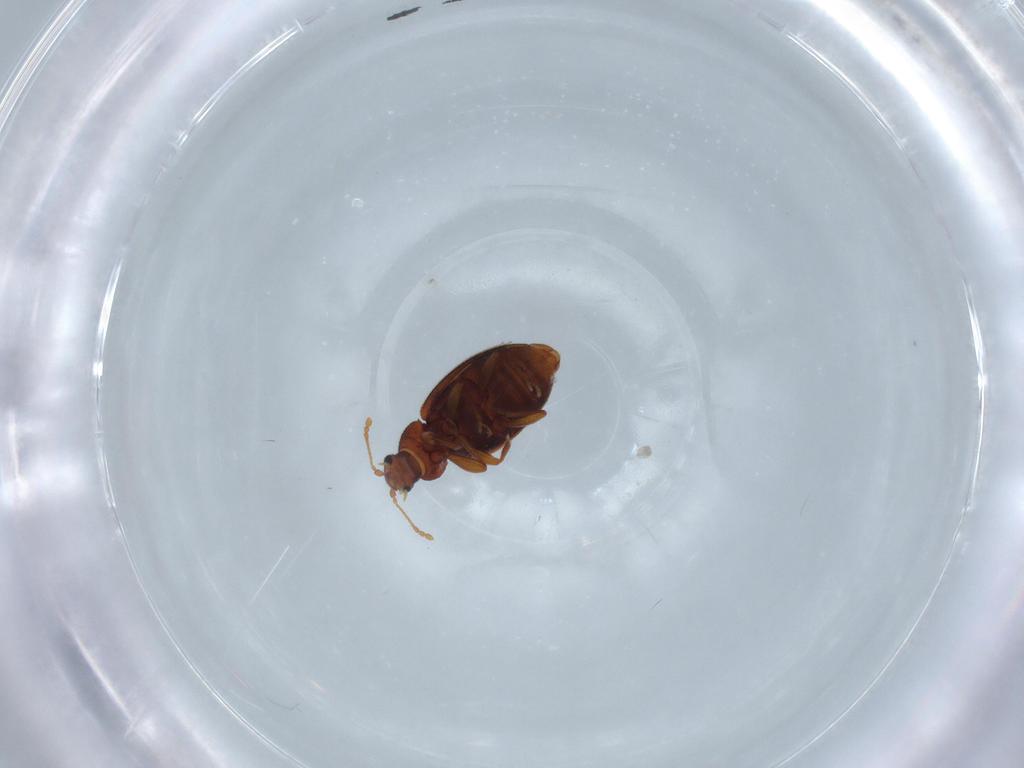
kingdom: Animalia
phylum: Arthropoda
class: Insecta
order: Coleoptera
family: Latridiidae
